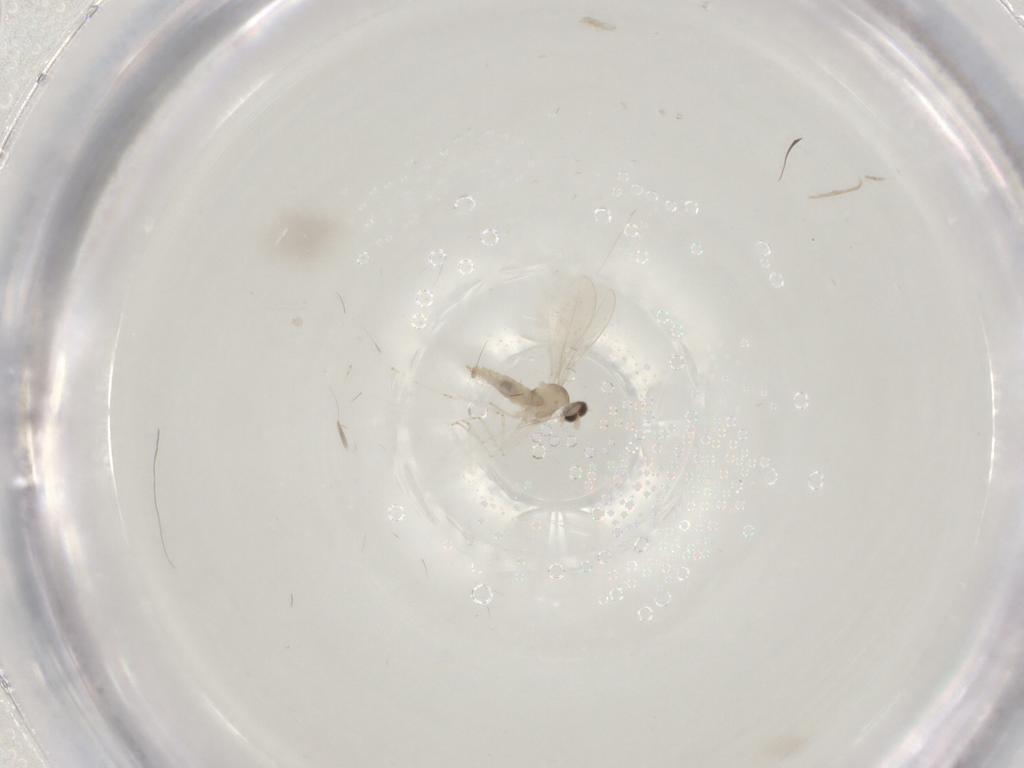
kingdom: Animalia
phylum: Arthropoda
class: Insecta
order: Diptera
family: Cecidomyiidae
